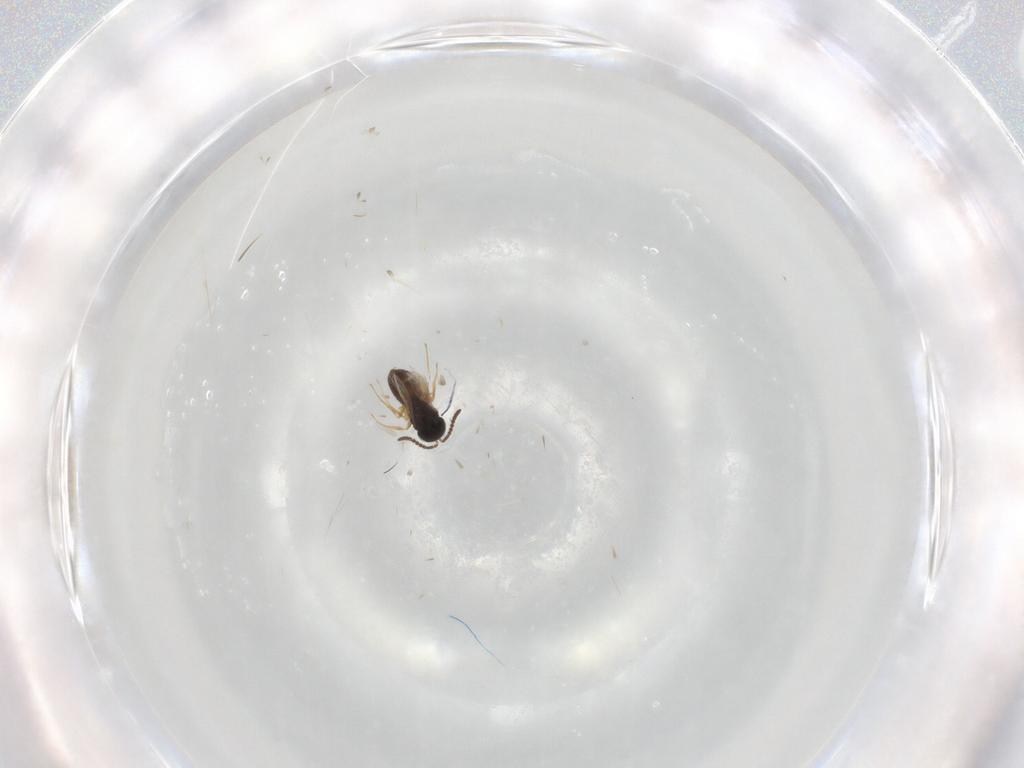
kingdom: Animalia
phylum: Arthropoda
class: Insecta
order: Hymenoptera
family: Scelionidae
